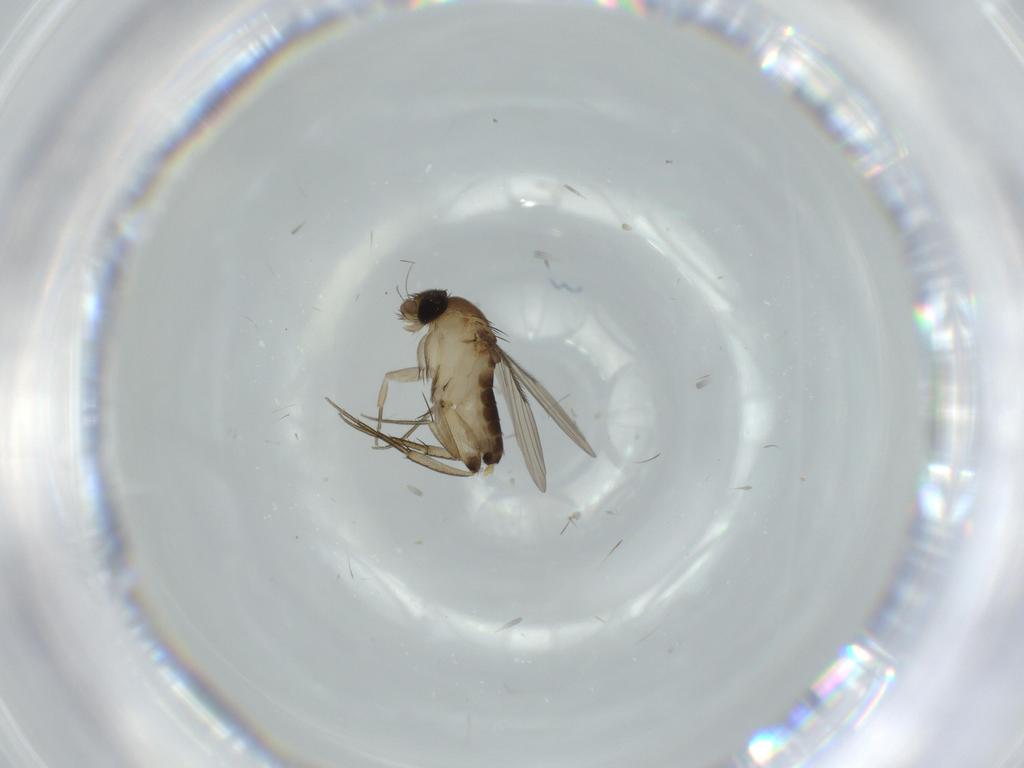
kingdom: Animalia
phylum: Arthropoda
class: Insecta
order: Diptera
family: Phoridae
